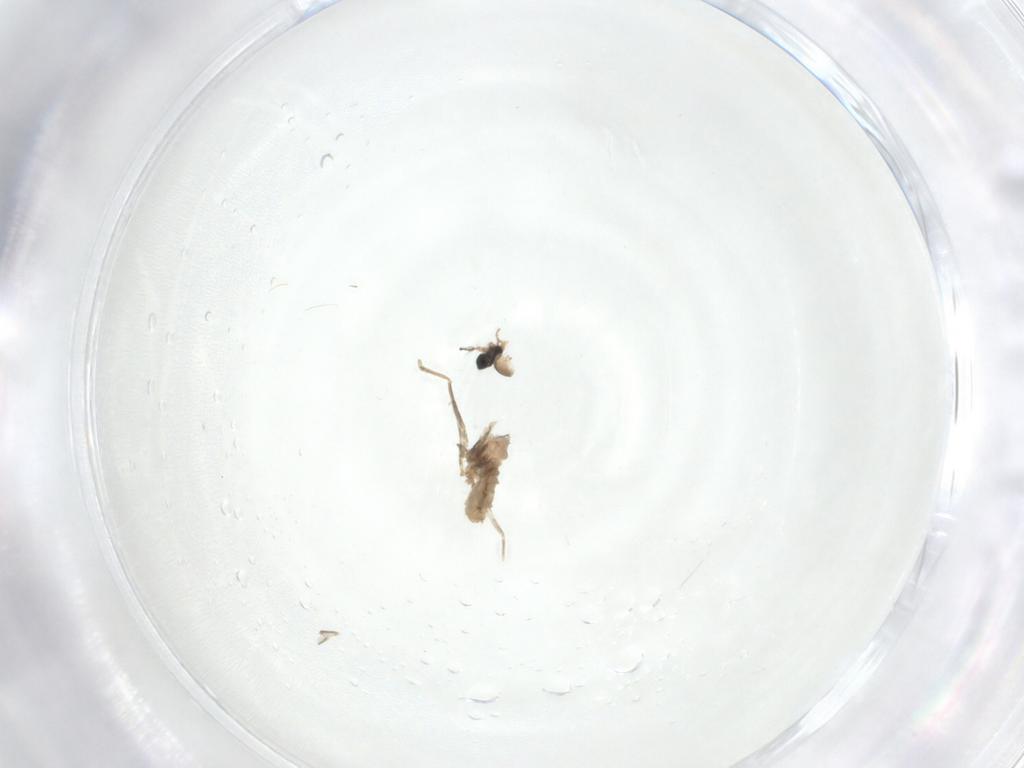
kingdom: Animalia
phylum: Arthropoda
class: Insecta
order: Diptera
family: Cecidomyiidae
